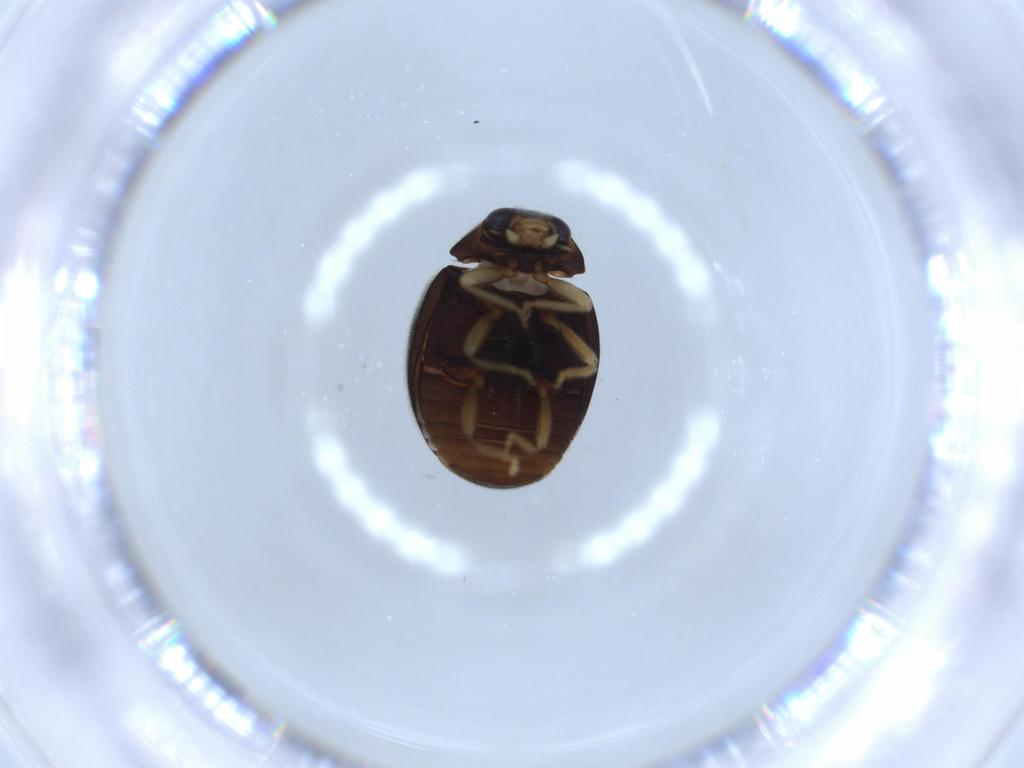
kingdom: Animalia
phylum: Arthropoda
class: Insecta
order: Coleoptera
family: Coccinellidae
